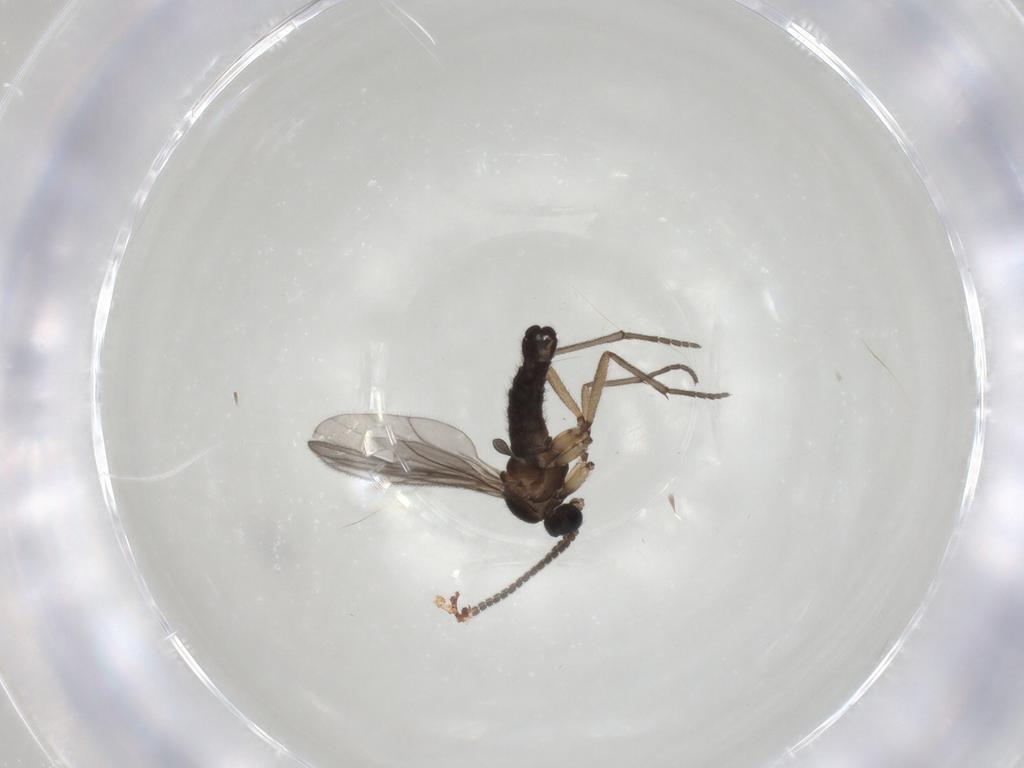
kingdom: Animalia
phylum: Arthropoda
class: Insecta
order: Diptera
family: Sciaridae
